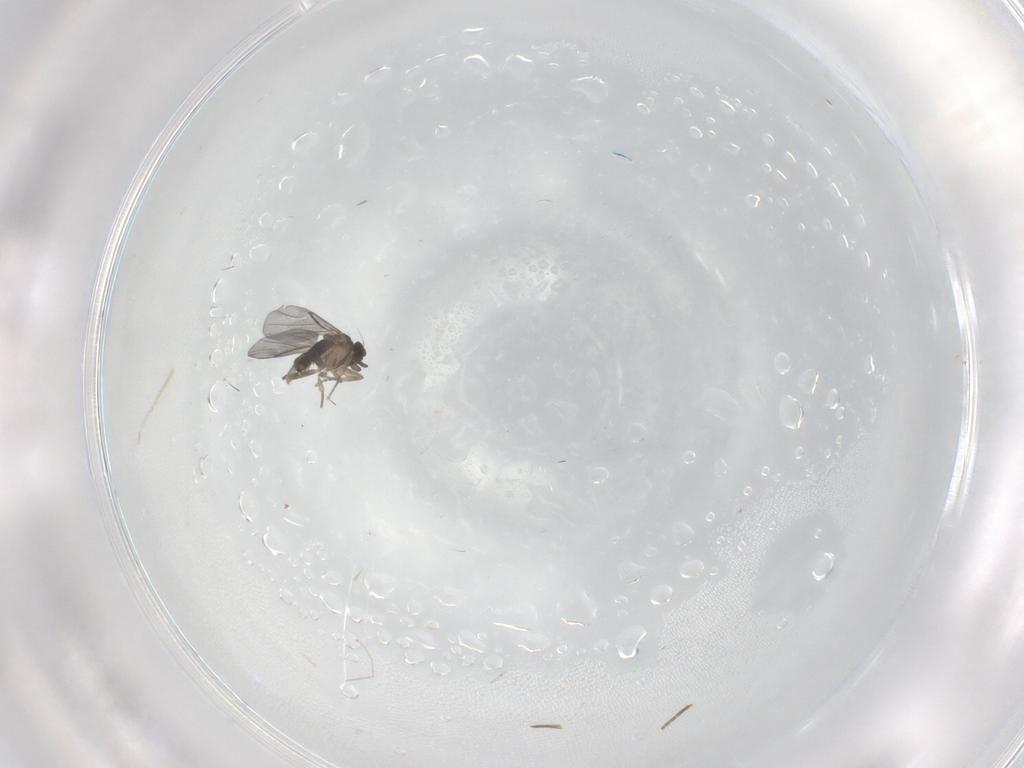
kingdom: Animalia
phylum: Arthropoda
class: Insecta
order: Diptera
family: Cecidomyiidae
